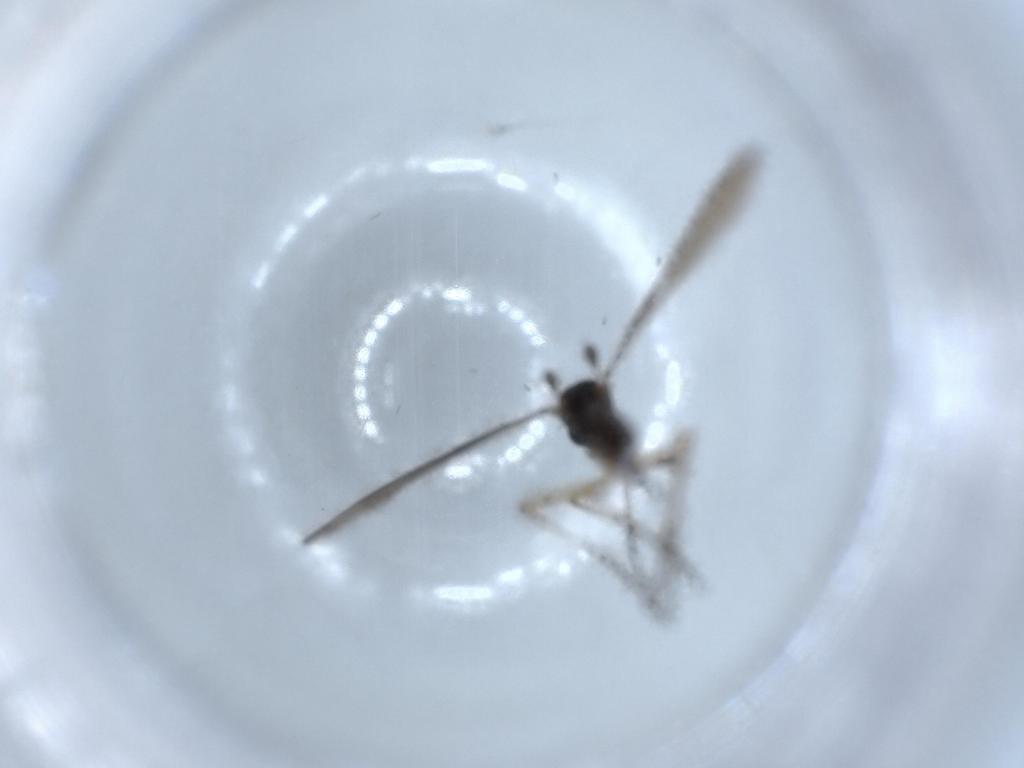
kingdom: Animalia
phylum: Arthropoda
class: Insecta
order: Diptera
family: Sciaridae
